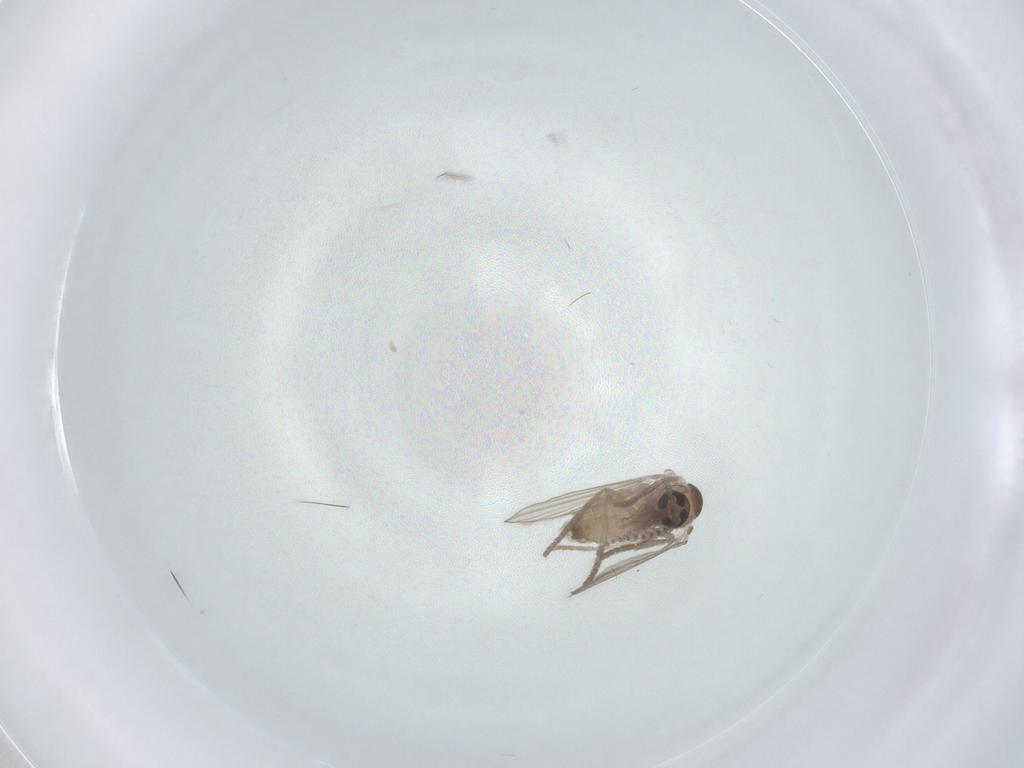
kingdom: Animalia
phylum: Arthropoda
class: Insecta
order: Diptera
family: Psychodidae
